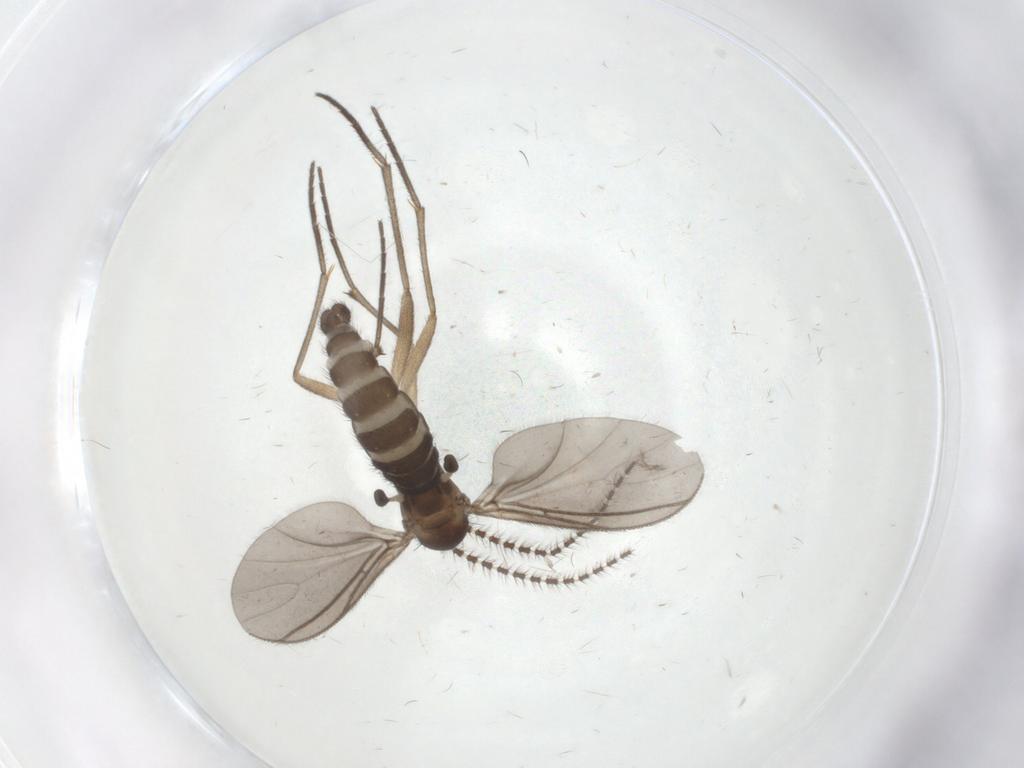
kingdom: Animalia
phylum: Arthropoda
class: Insecta
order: Diptera
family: Sciaridae
